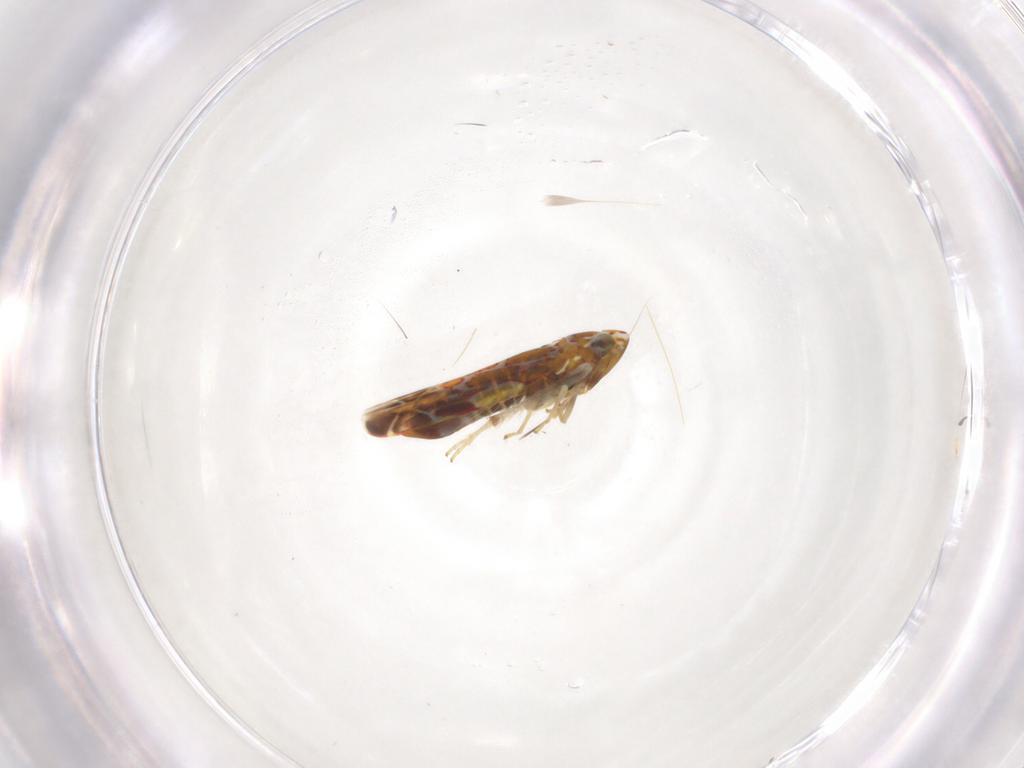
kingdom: Animalia
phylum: Arthropoda
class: Insecta
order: Hemiptera
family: Cicadellidae
